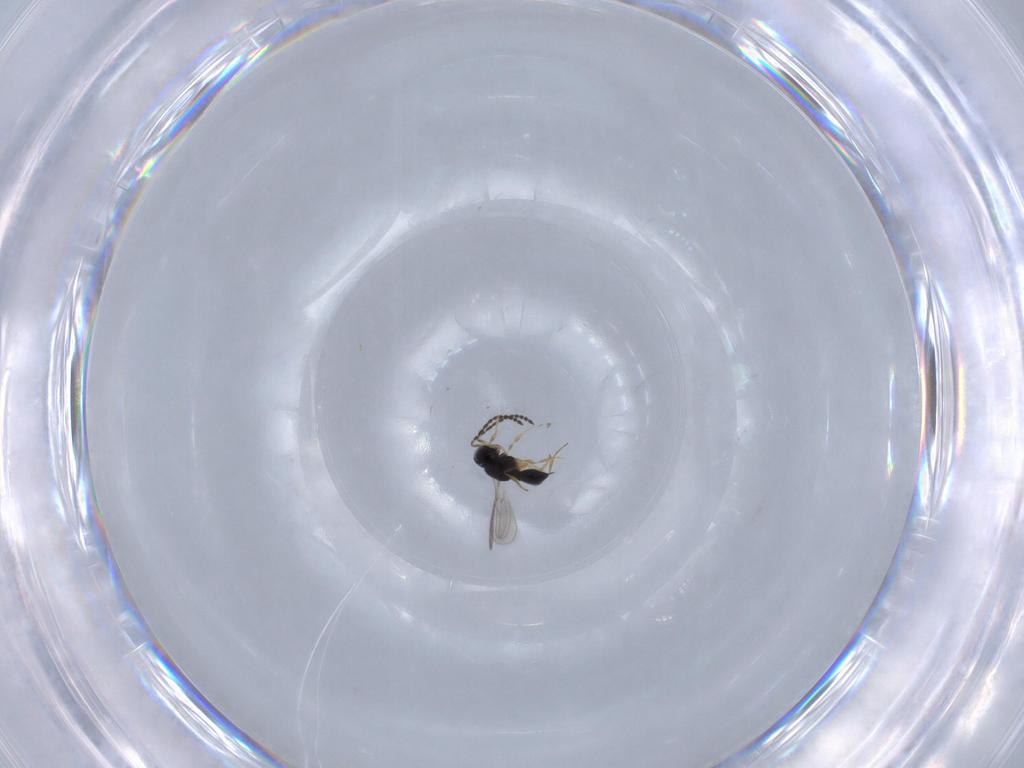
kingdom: Animalia
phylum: Arthropoda
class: Insecta
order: Hymenoptera
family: Scelionidae
